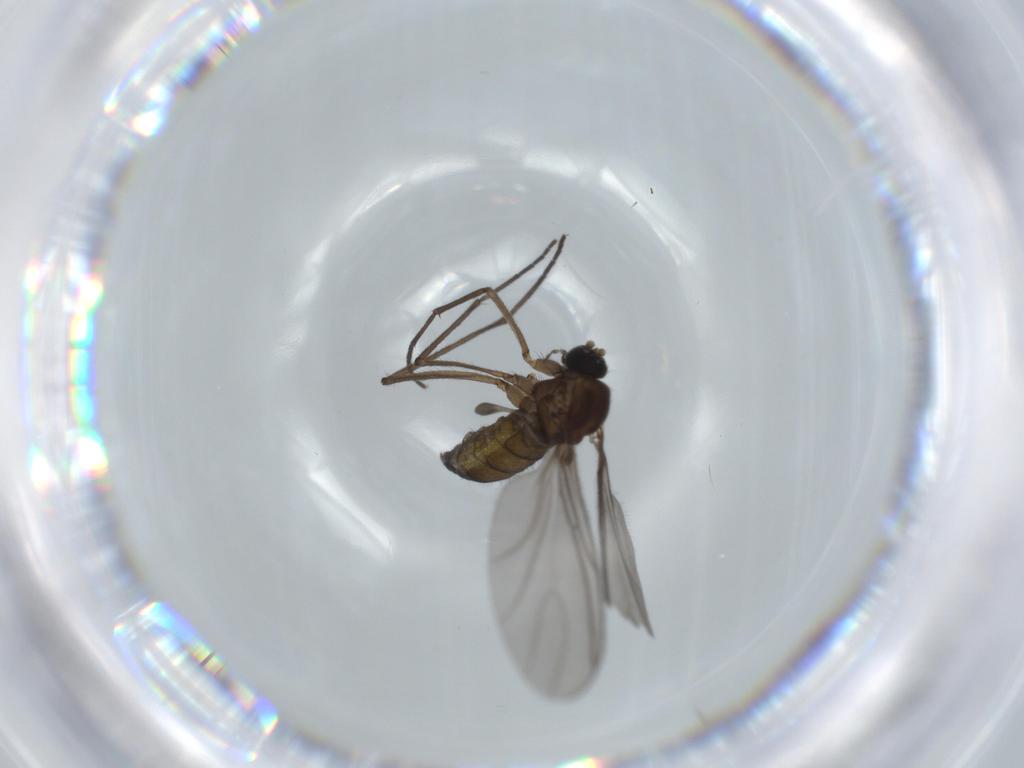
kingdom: Animalia
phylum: Arthropoda
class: Insecta
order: Diptera
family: Sciaridae
